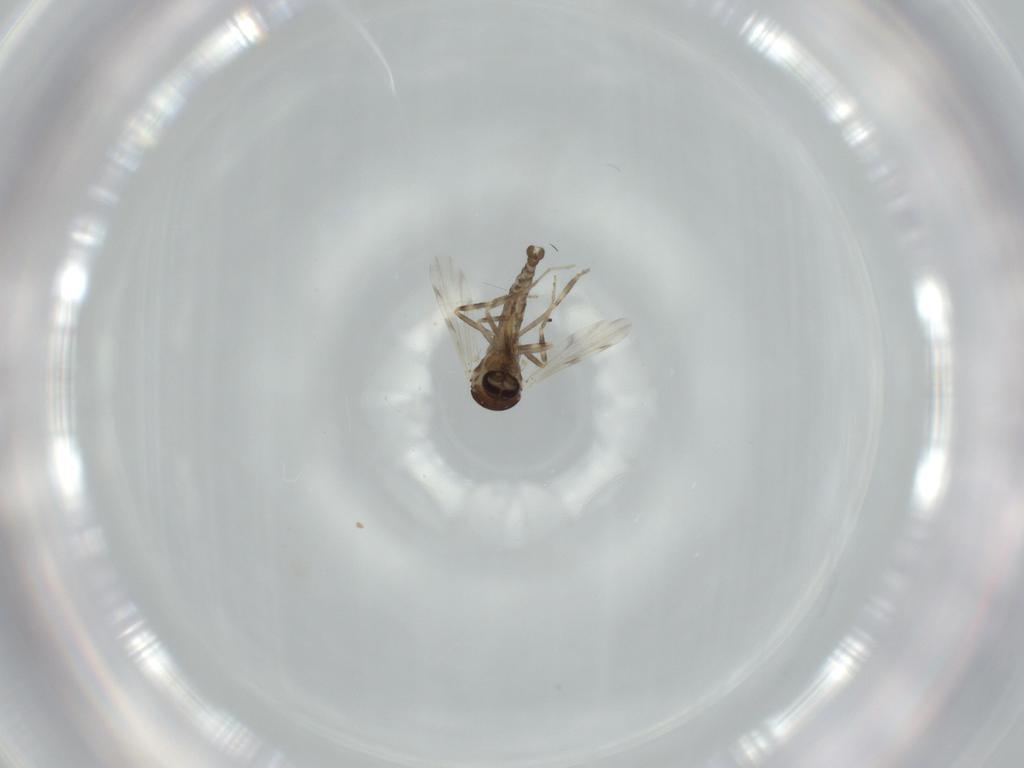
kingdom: Animalia
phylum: Arthropoda
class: Insecta
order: Diptera
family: Ceratopogonidae
